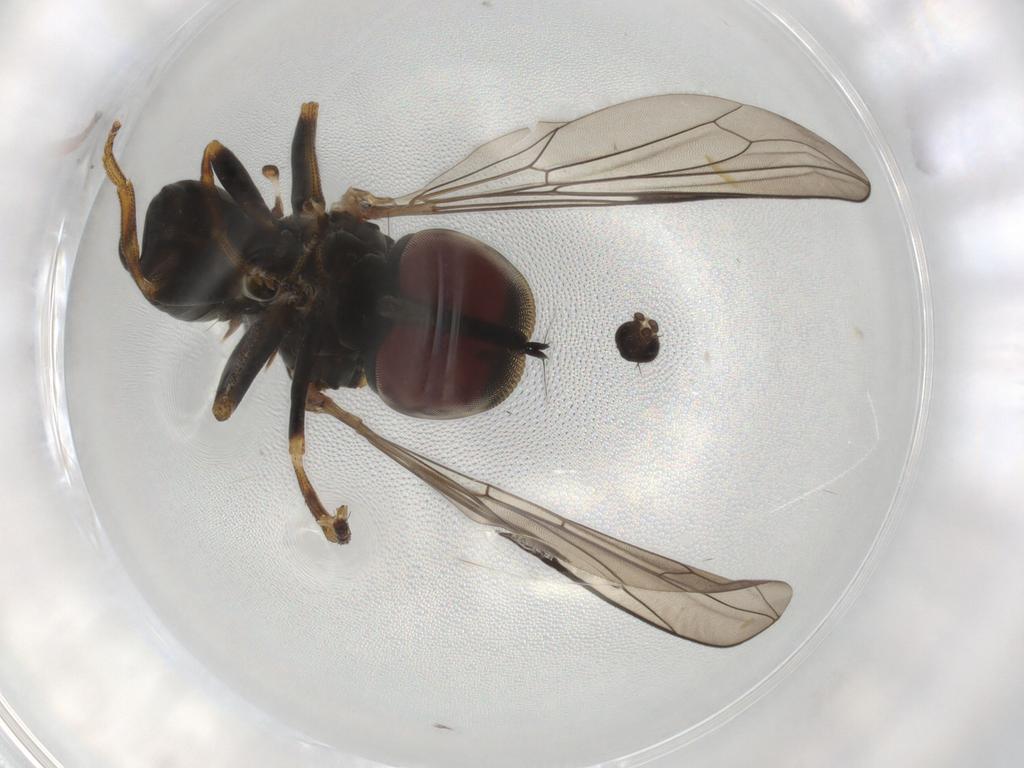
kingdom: Animalia
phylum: Arthropoda
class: Insecta
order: Diptera
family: Pipunculidae
